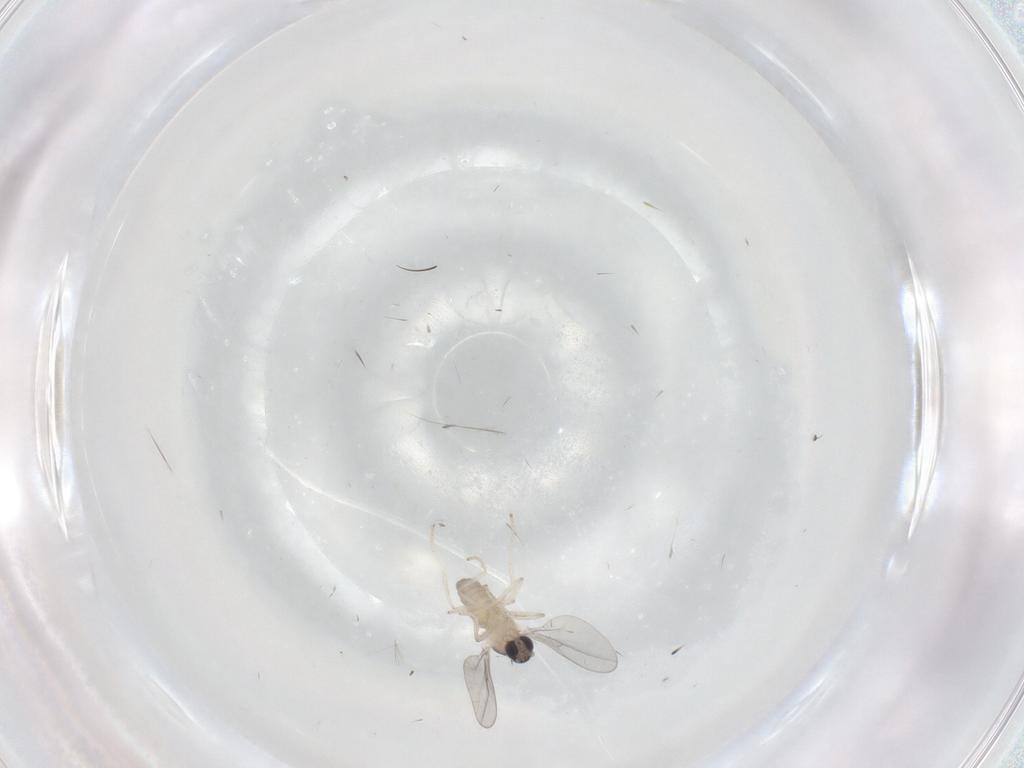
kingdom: Animalia
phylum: Arthropoda
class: Insecta
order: Diptera
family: Cecidomyiidae
